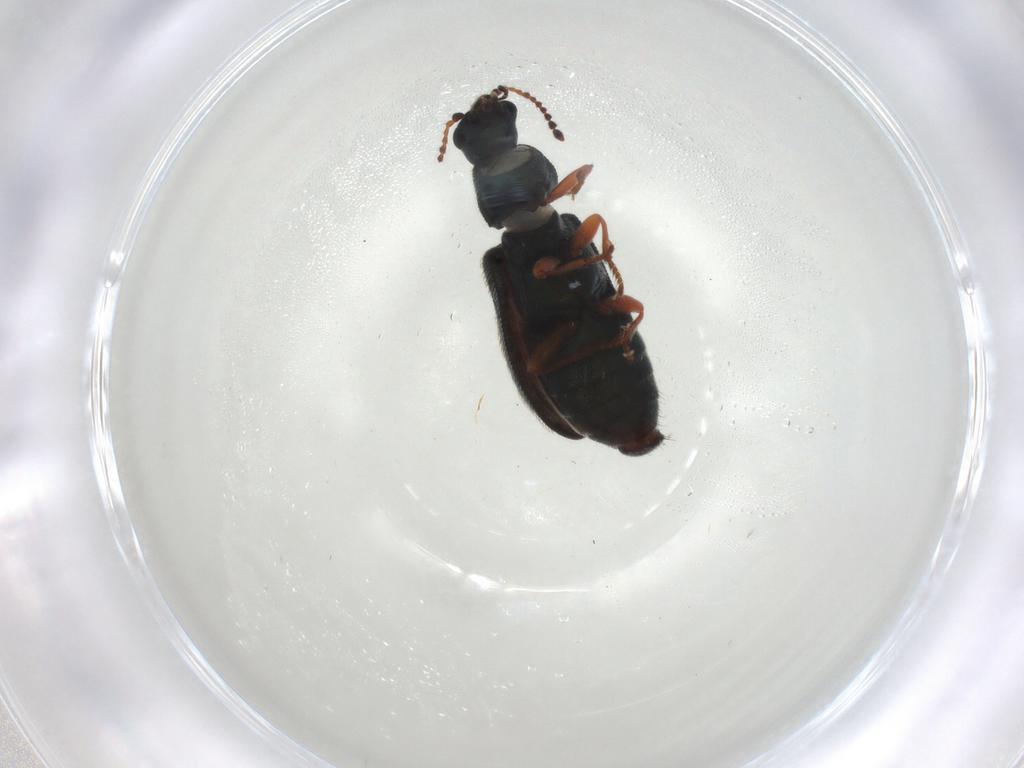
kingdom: Animalia
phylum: Arthropoda
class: Insecta
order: Coleoptera
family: Melyridae
